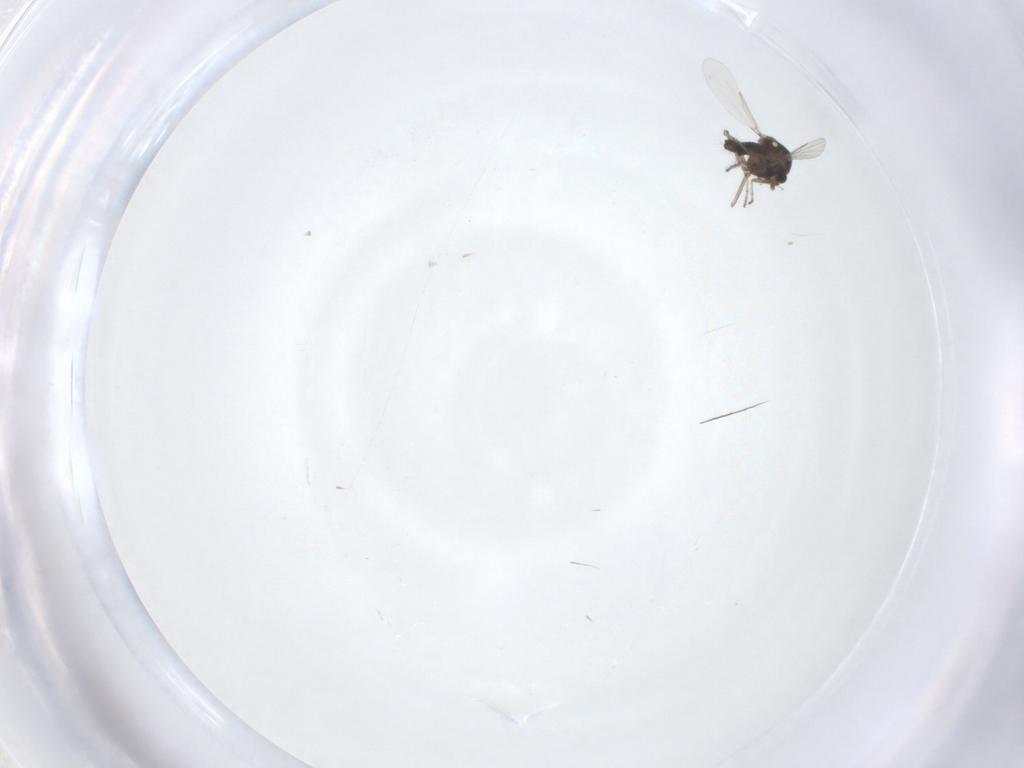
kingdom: Animalia
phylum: Arthropoda
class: Insecta
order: Diptera
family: Ceratopogonidae
